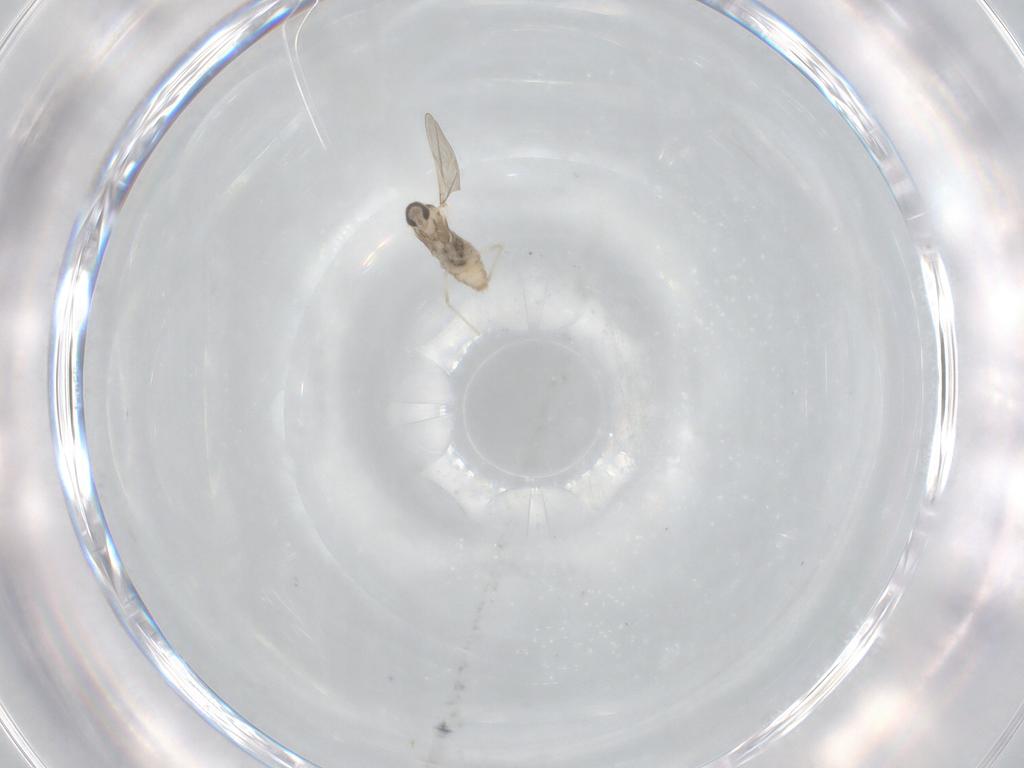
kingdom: Animalia
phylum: Arthropoda
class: Insecta
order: Diptera
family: Cecidomyiidae
